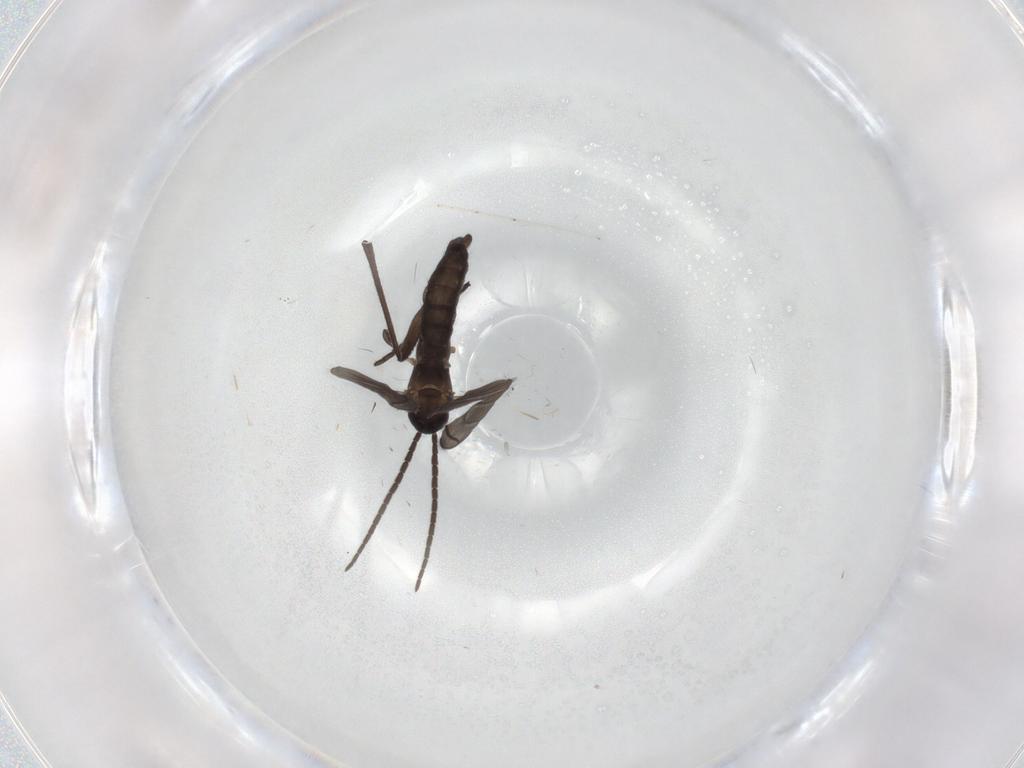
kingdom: Animalia
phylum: Arthropoda
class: Insecta
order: Diptera
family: Sciaridae
